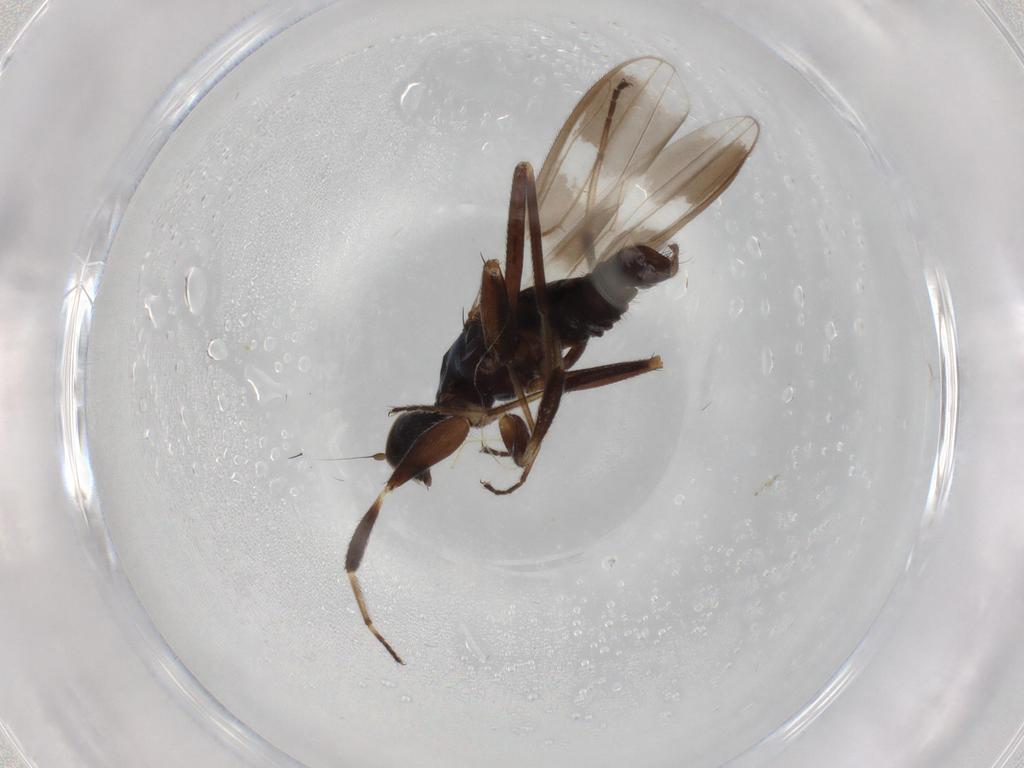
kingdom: Animalia
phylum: Arthropoda
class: Insecta
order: Diptera
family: Hybotidae
